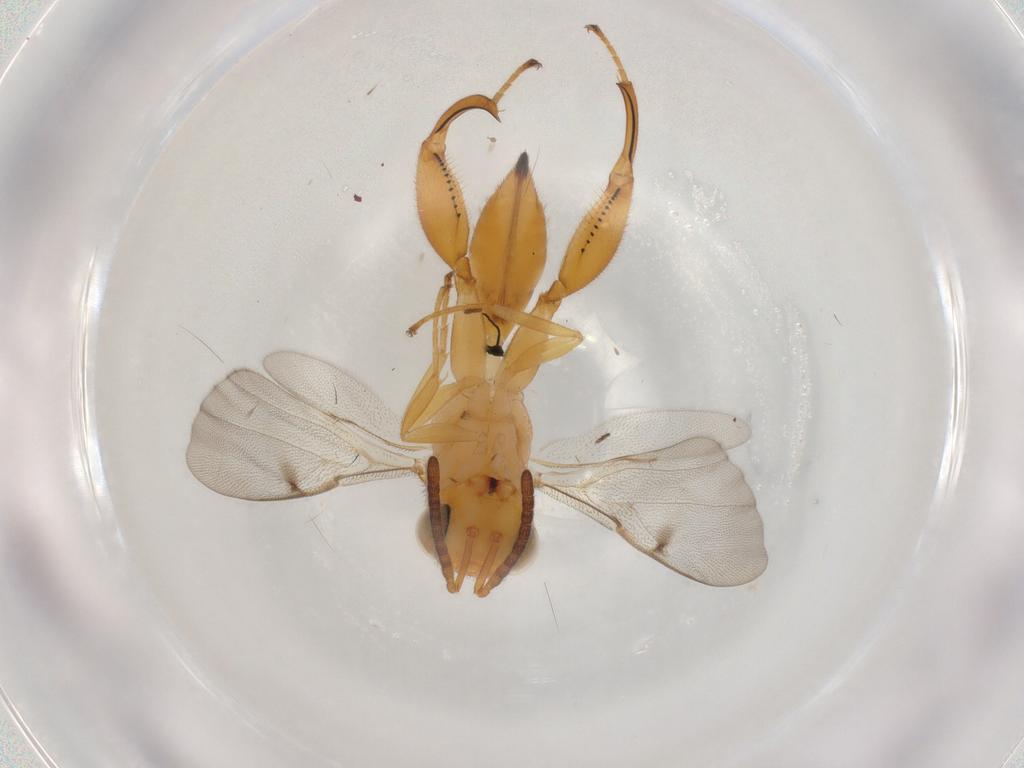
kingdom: Animalia
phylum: Arthropoda
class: Insecta
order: Hymenoptera
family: Chalcididae
